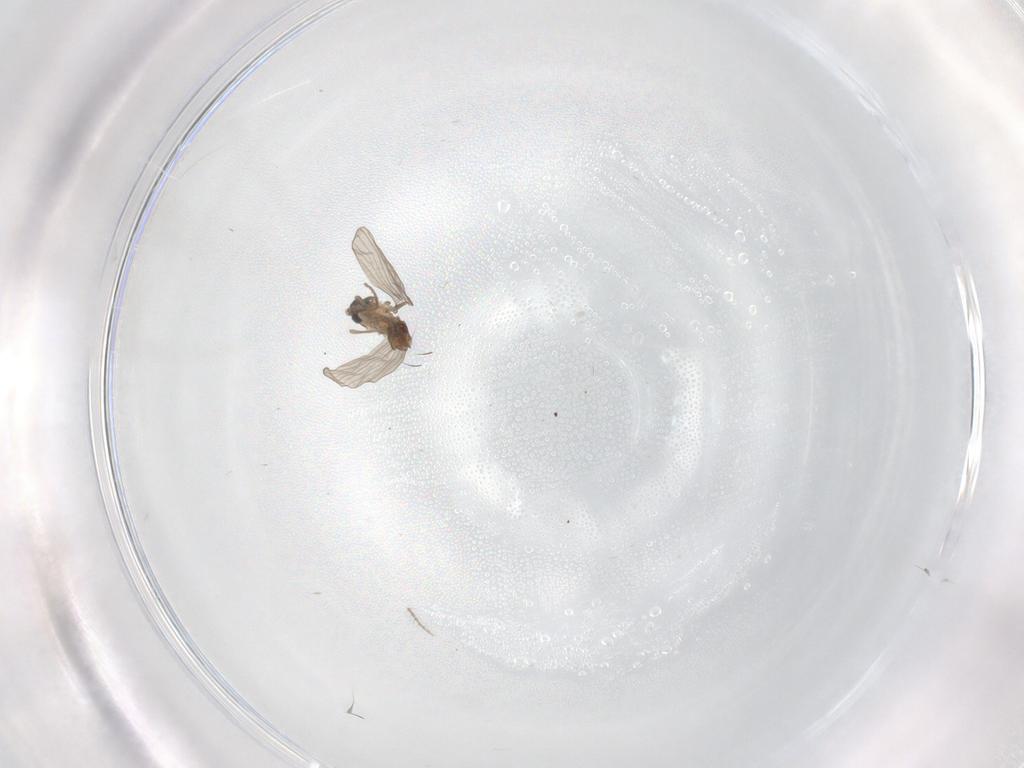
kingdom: Animalia
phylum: Arthropoda
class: Insecta
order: Diptera
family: Psychodidae
